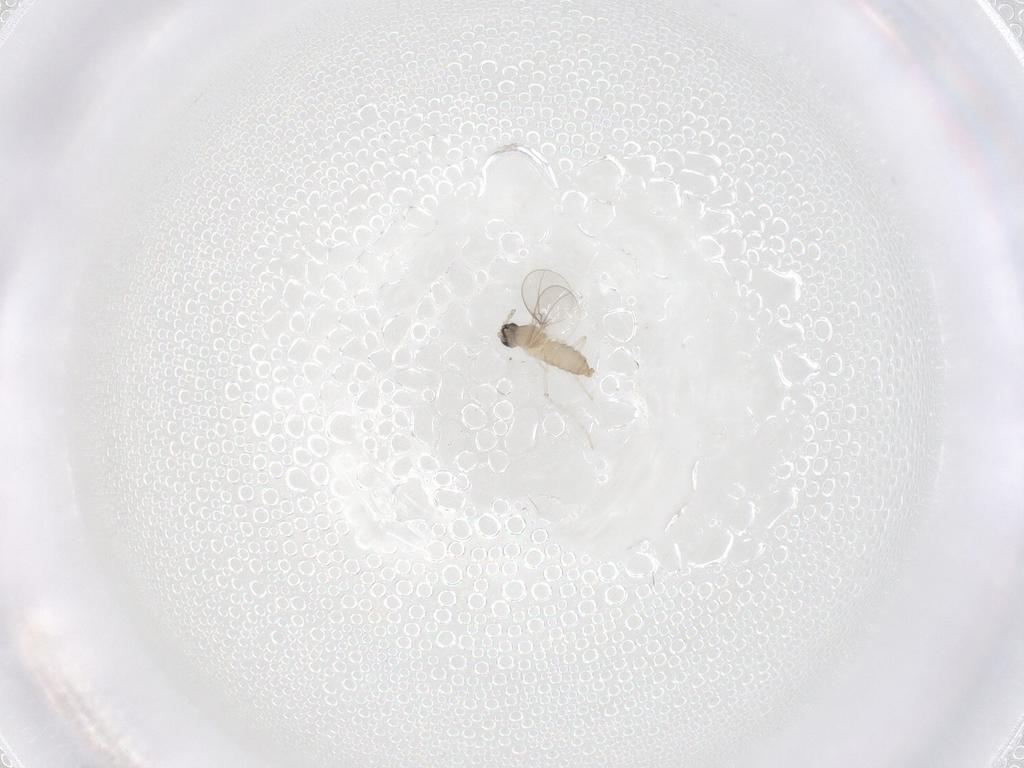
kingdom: Animalia
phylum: Arthropoda
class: Insecta
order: Diptera
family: Cecidomyiidae
